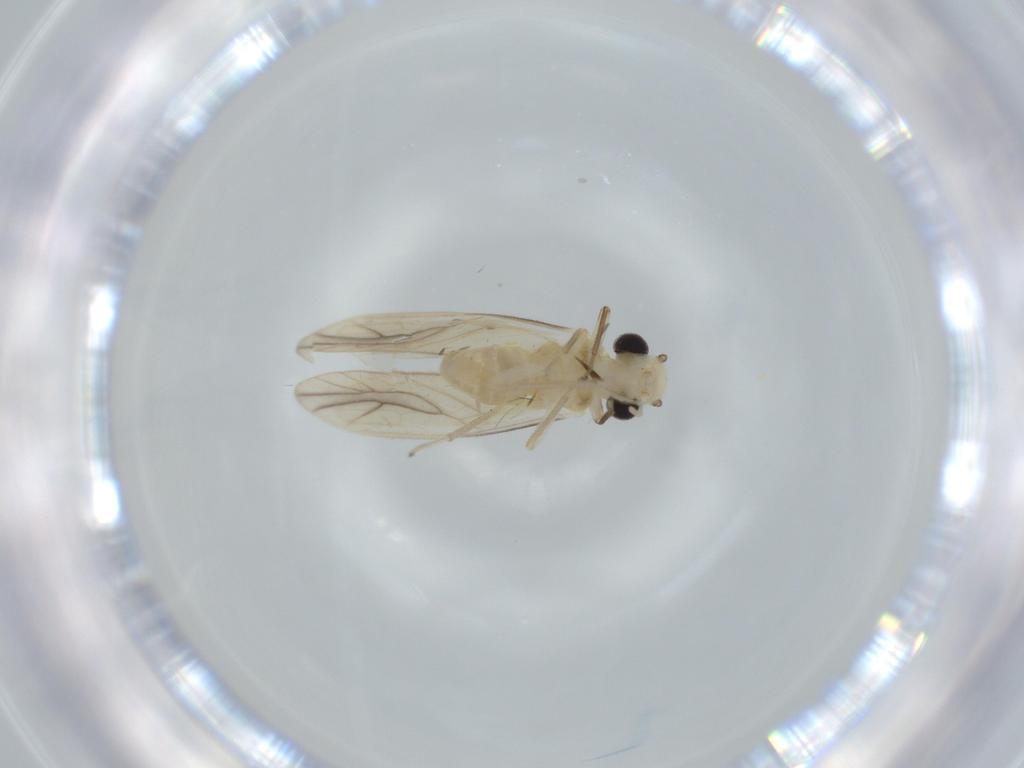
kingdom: Animalia
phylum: Arthropoda
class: Insecta
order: Psocodea
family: Caeciliusidae
